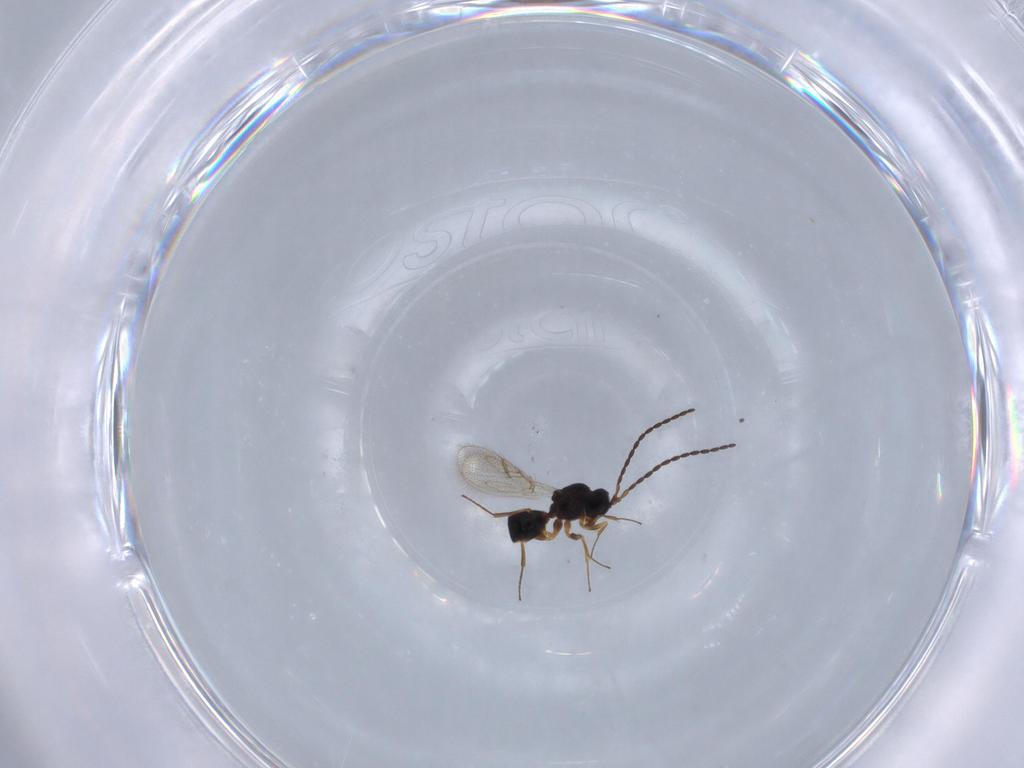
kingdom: Animalia
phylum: Arthropoda
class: Insecta
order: Hymenoptera
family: Figitidae
